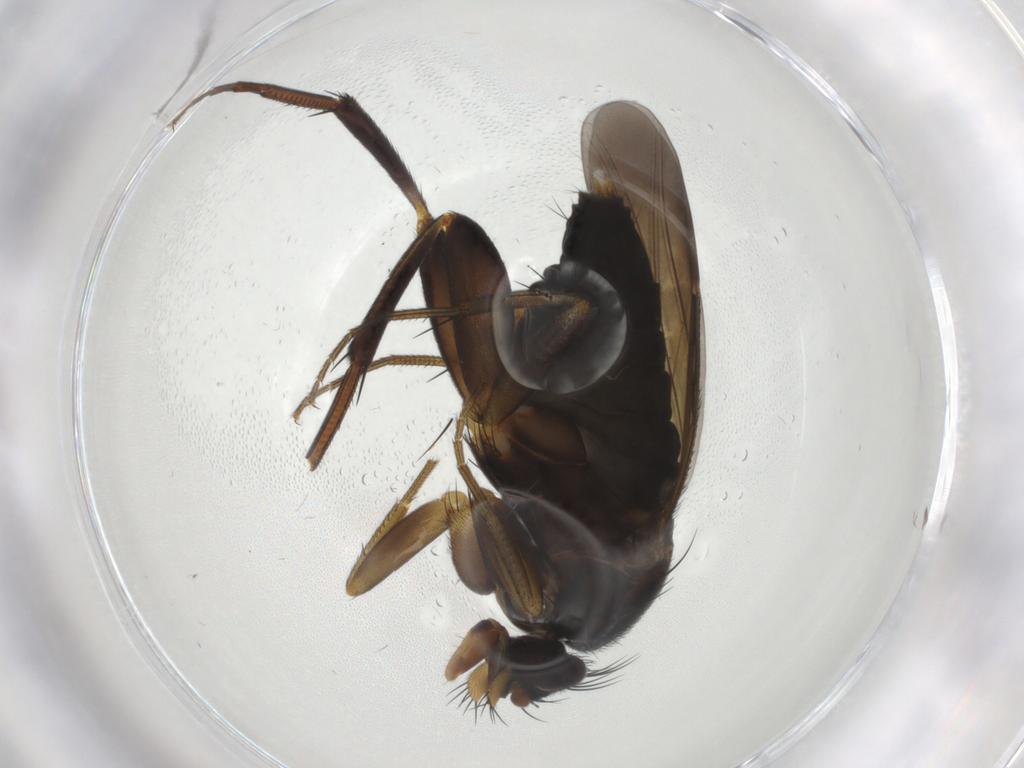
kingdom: Animalia
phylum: Arthropoda
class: Insecta
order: Diptera
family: Phoridae
